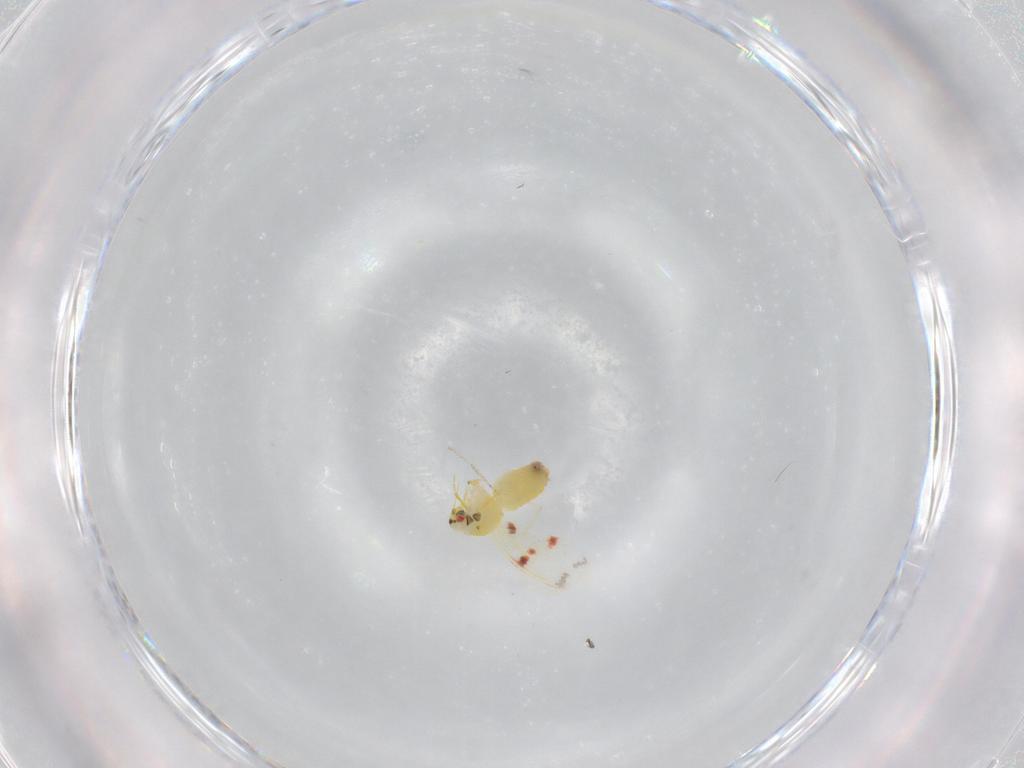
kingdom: Animalia
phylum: Arthropoda
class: Insecta
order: Hemiptera
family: Aleyrodidae
